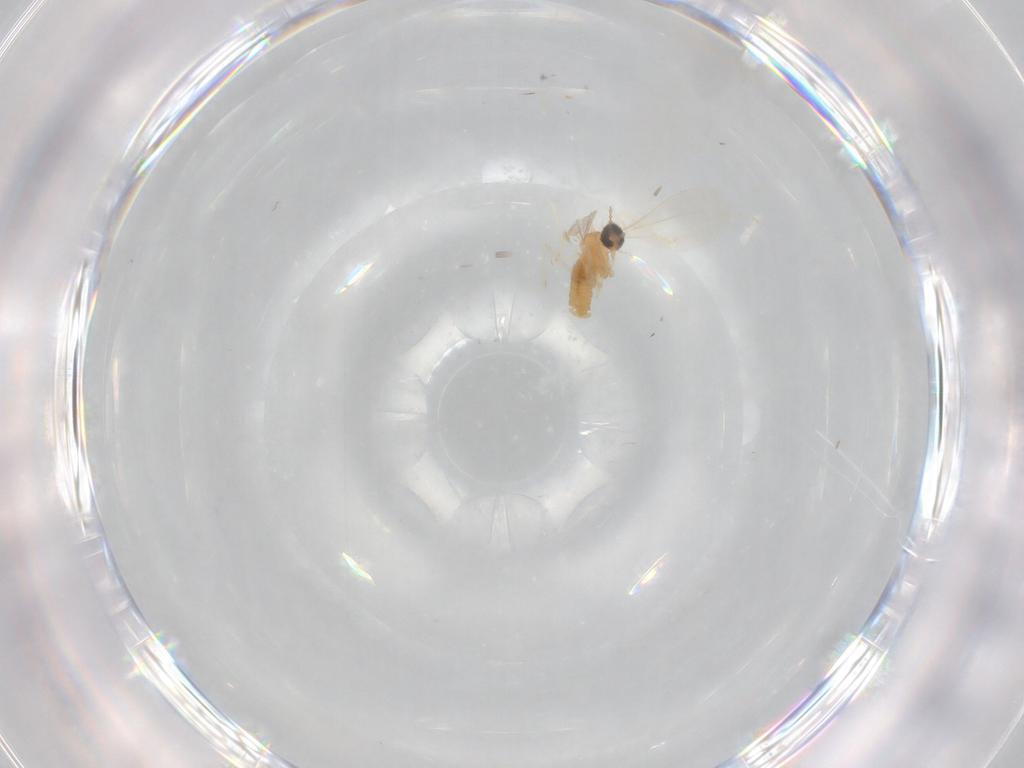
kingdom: Animalia
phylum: Arthropoda
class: Insecta
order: Diptera
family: Cecidomyiidae
